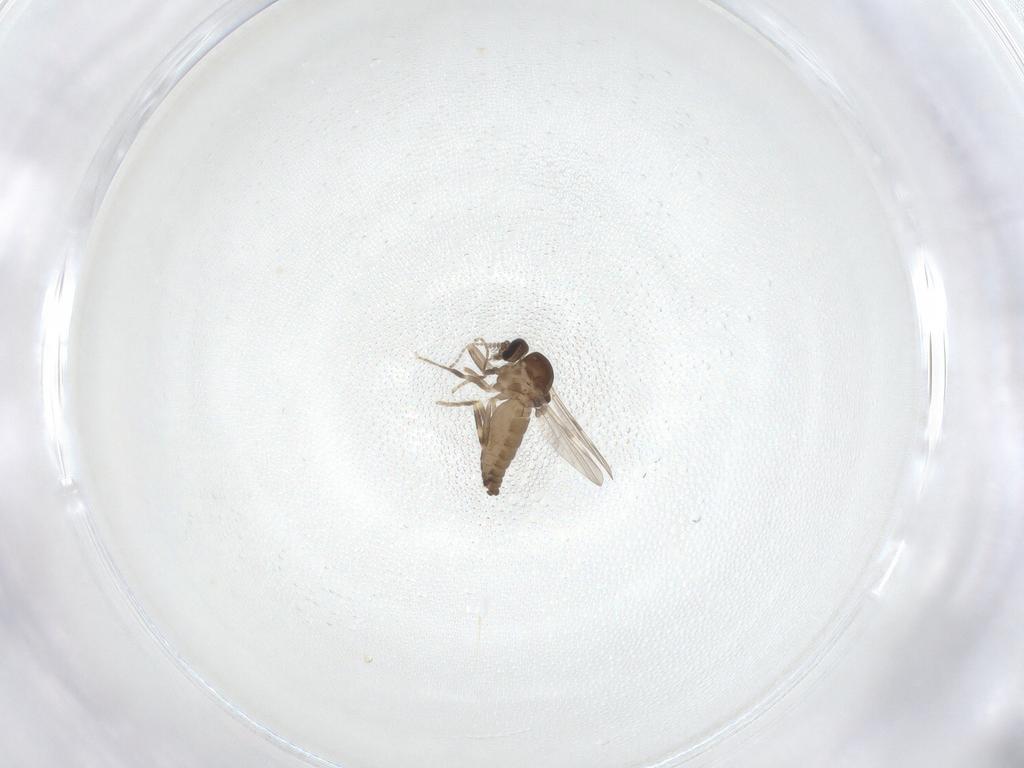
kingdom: Animalia
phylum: Arthropoda
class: Insecta
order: Diptera
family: Ceratopogonidae
